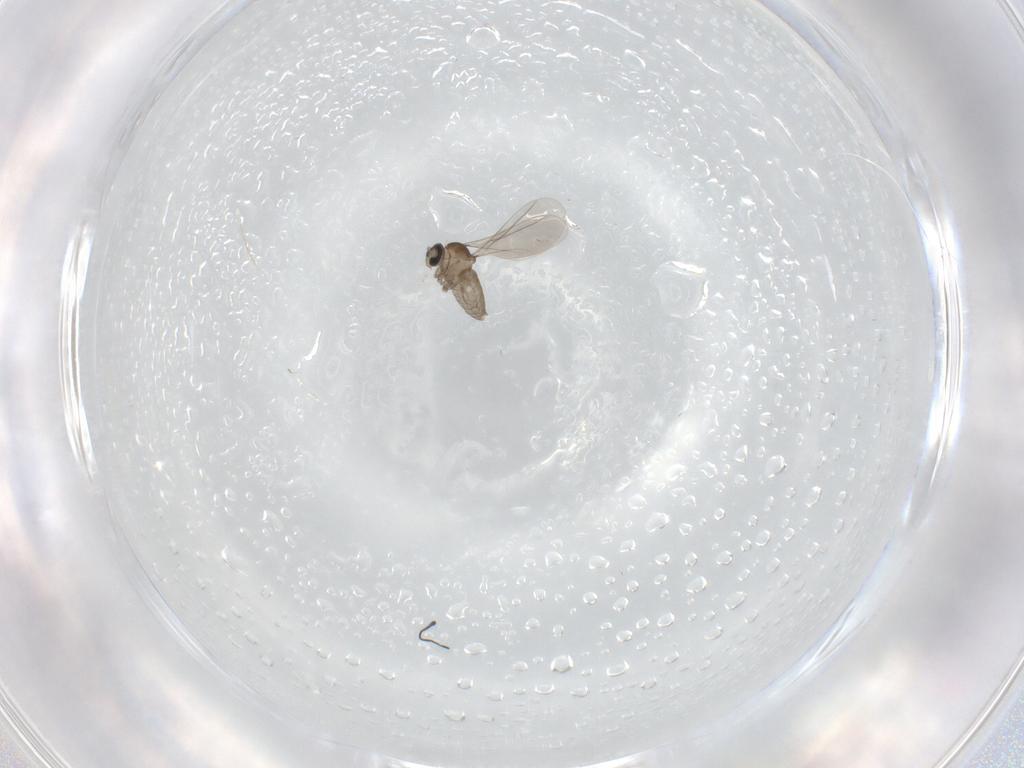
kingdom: Animalia
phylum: Arthropoda
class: Insecta
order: Diptera
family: Cecidomyiidae
